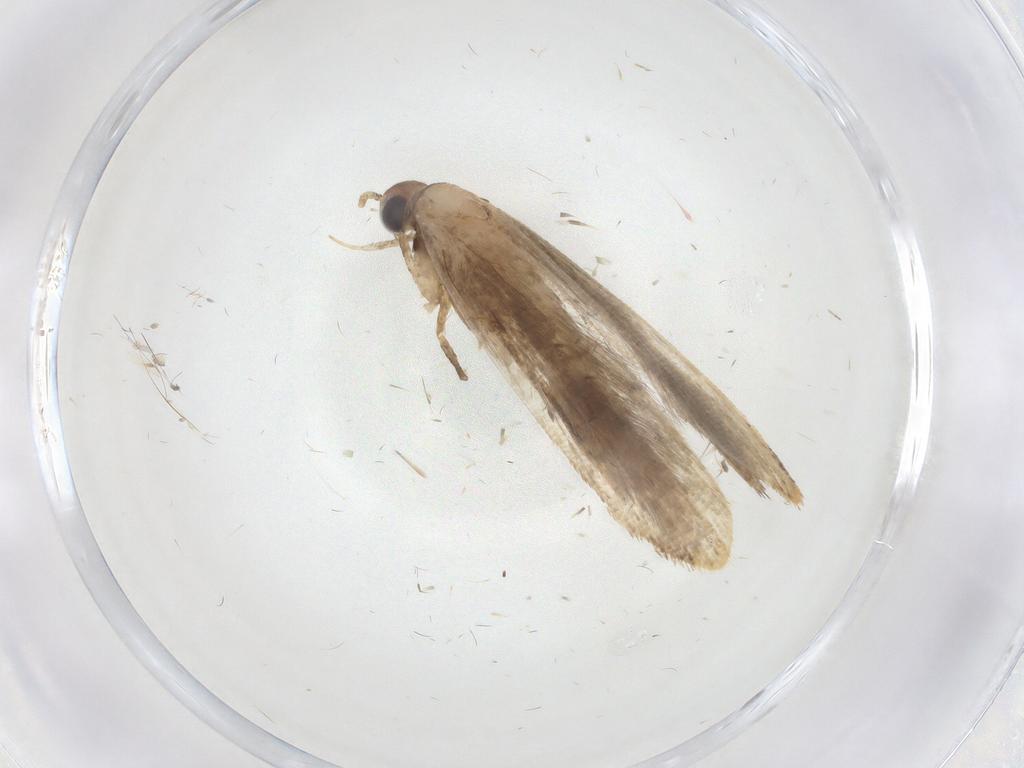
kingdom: Animalia
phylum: Arthropoda
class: Insecta
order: Lepidoptera
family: Gelechiidae
